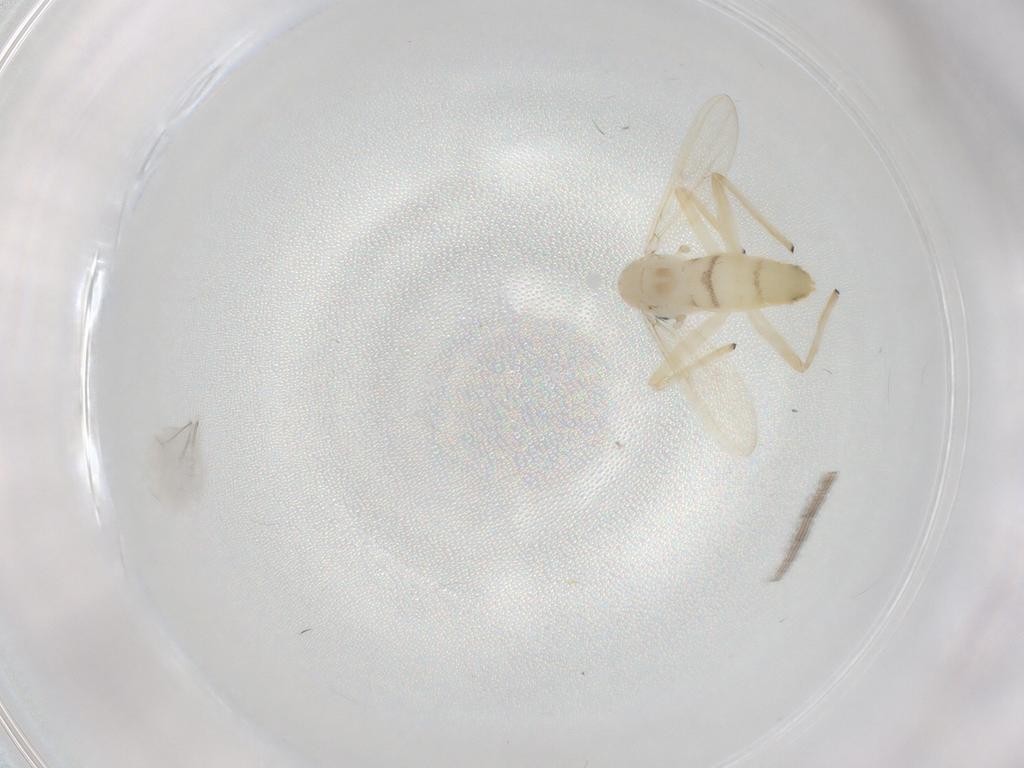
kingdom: Animalia
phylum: Arthropoda
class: Insecta
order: Diptera
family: Chironomidae
